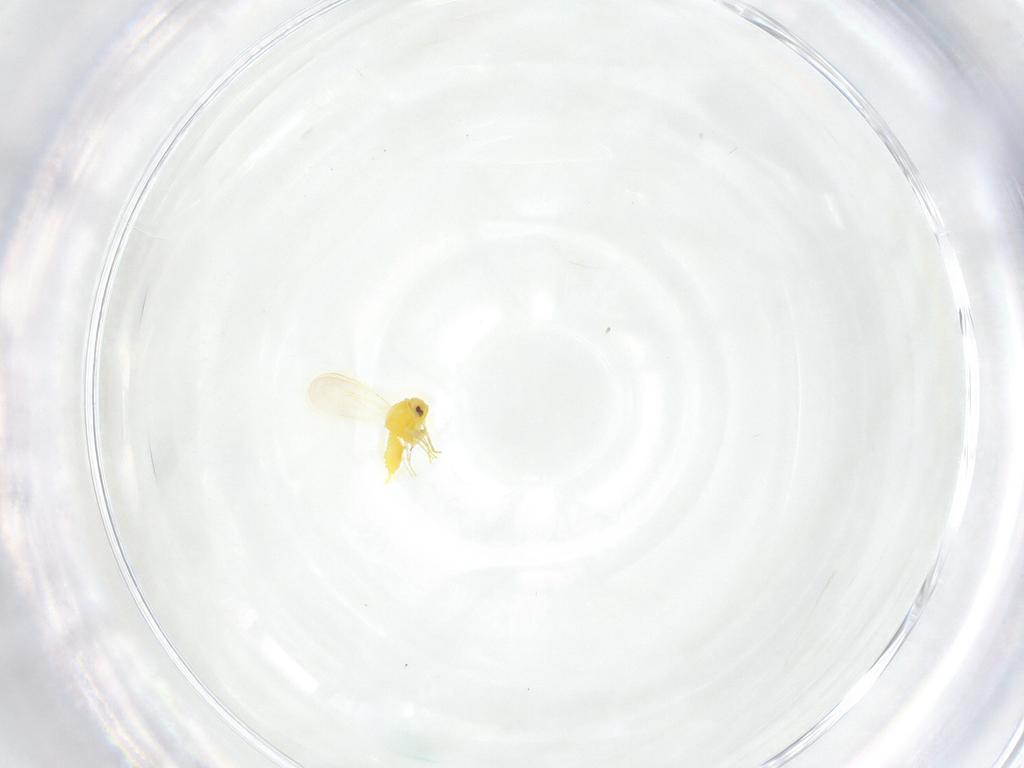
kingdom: Animalia
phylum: Arthropoda
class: Insecta
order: Hemiptera
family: Aleyrodidae
